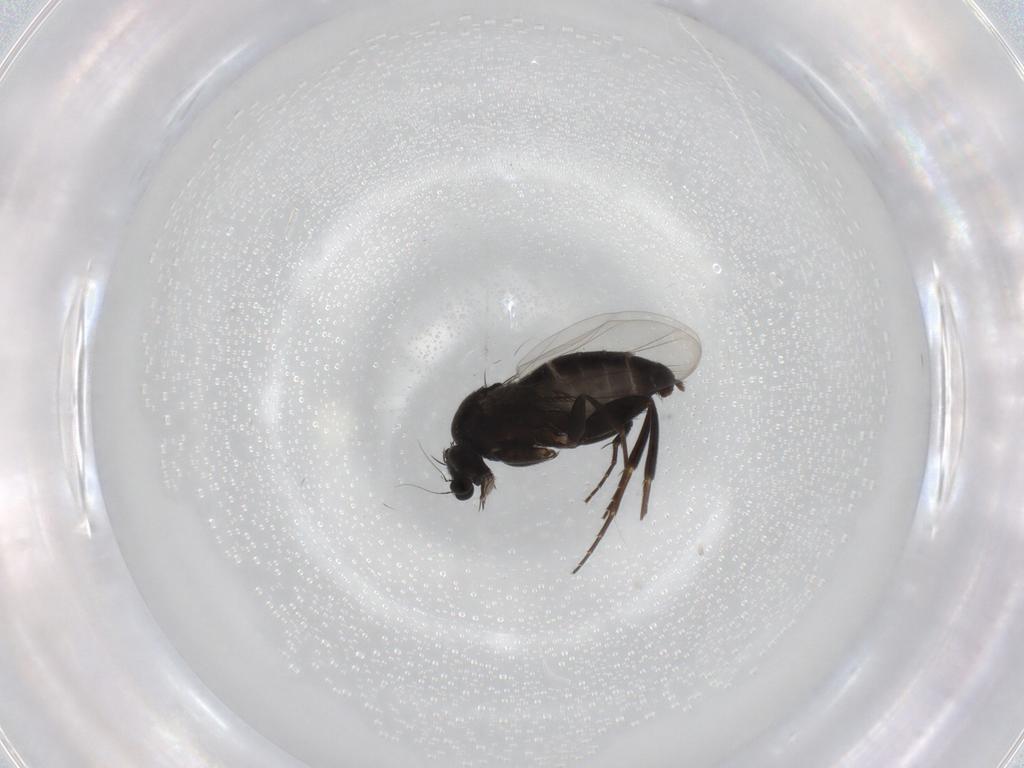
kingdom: Animalia
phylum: Arthropoda
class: Insecta
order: Diptera
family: Phoridae
